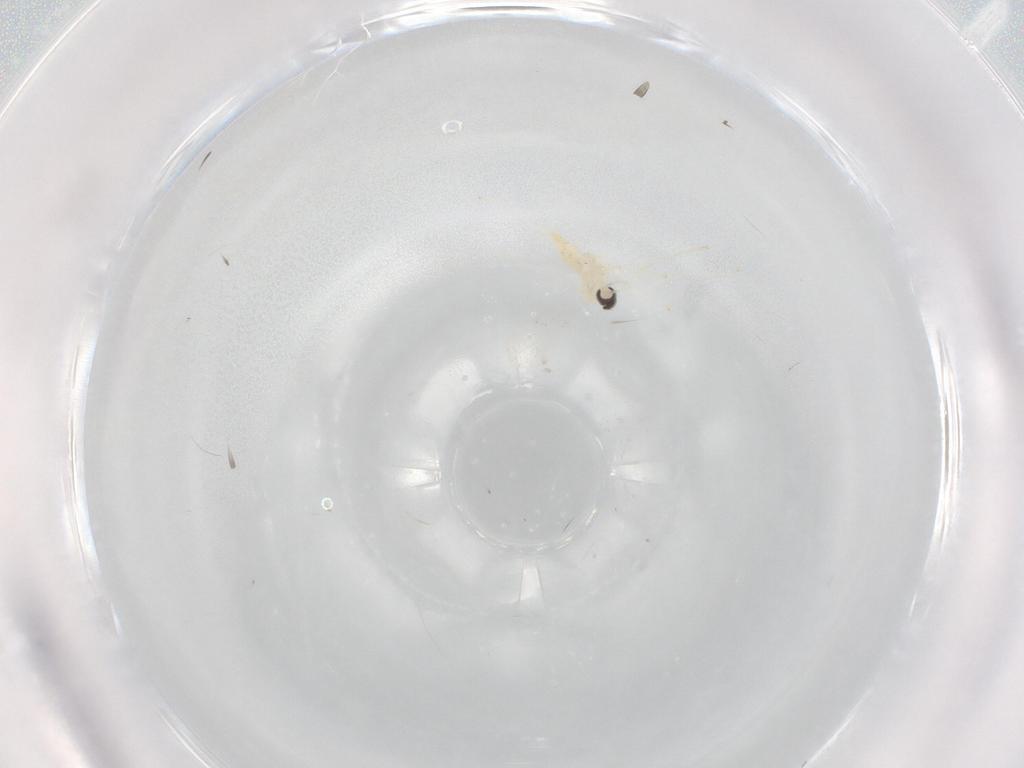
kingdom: Animalia
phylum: Arthropoda
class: Insecta
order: Diptera
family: Cecidomyiidae
